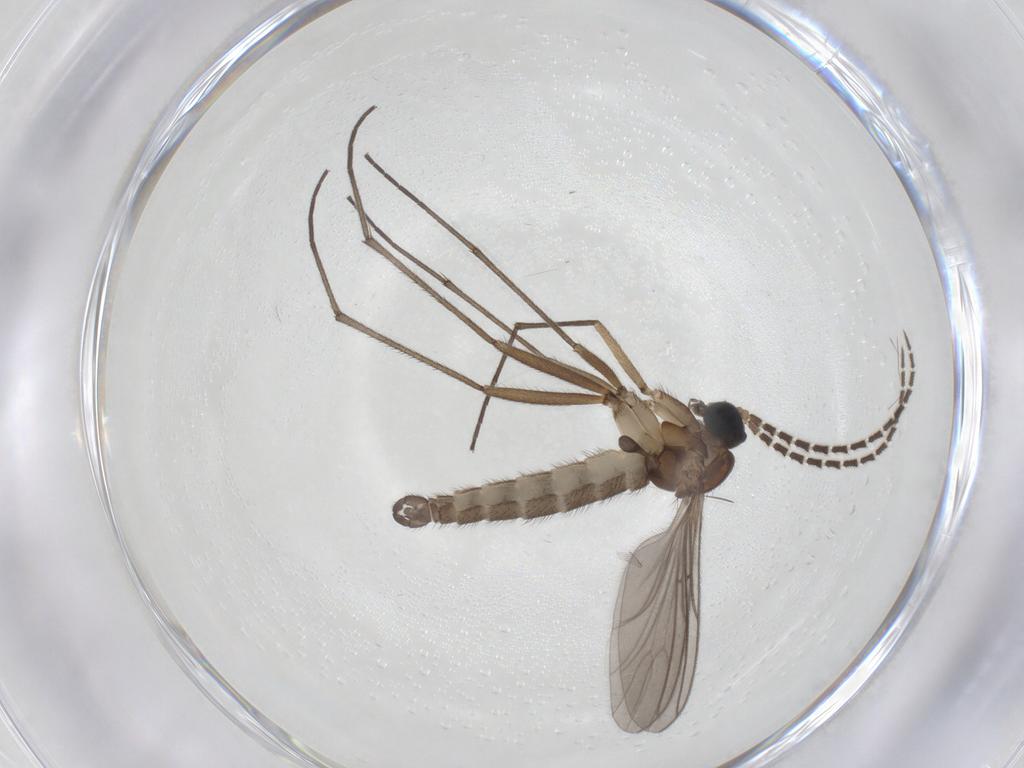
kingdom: Animalia
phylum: Arthropoda
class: Insecta
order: Diptera
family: Sciaridae
